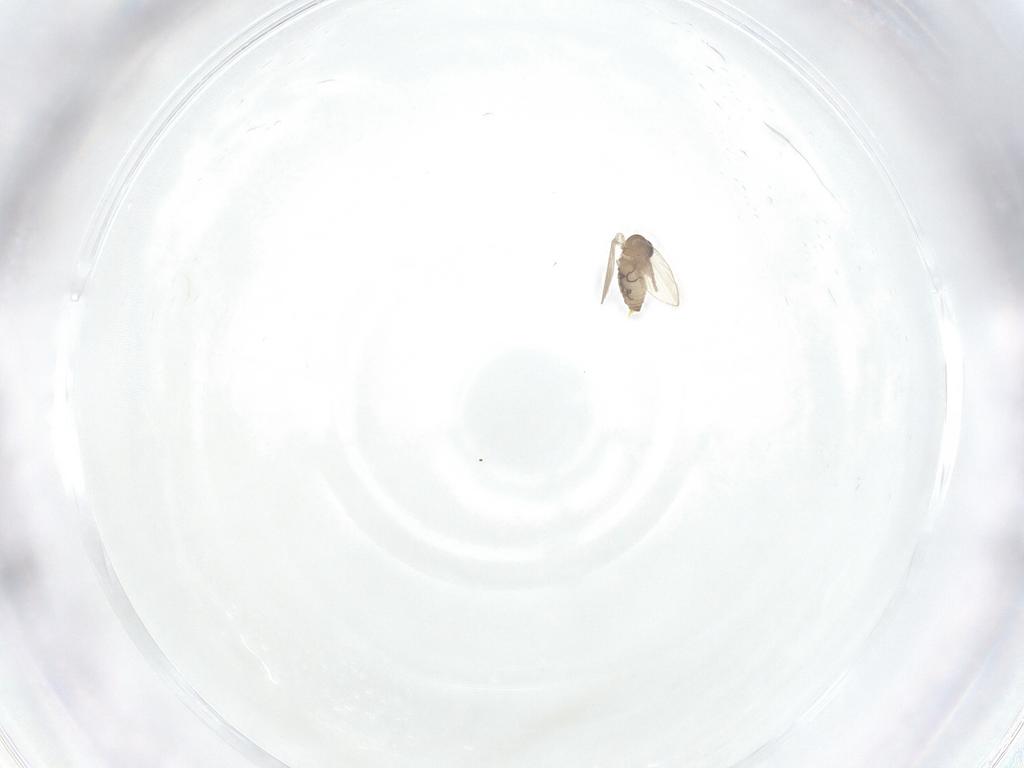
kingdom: Animalia
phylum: Arthropoda
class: Insecta
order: Diptera
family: Psychodidae
